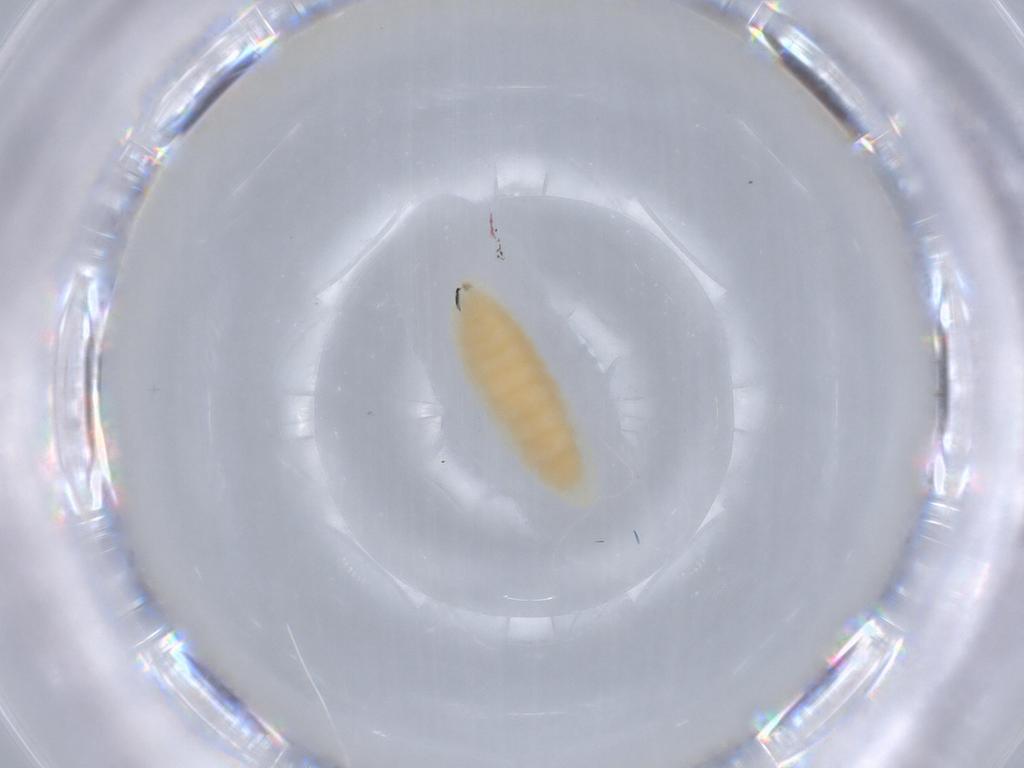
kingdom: Animalia
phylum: Arthropoda
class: Insecta
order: Diptera
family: Cecidomyiidae
